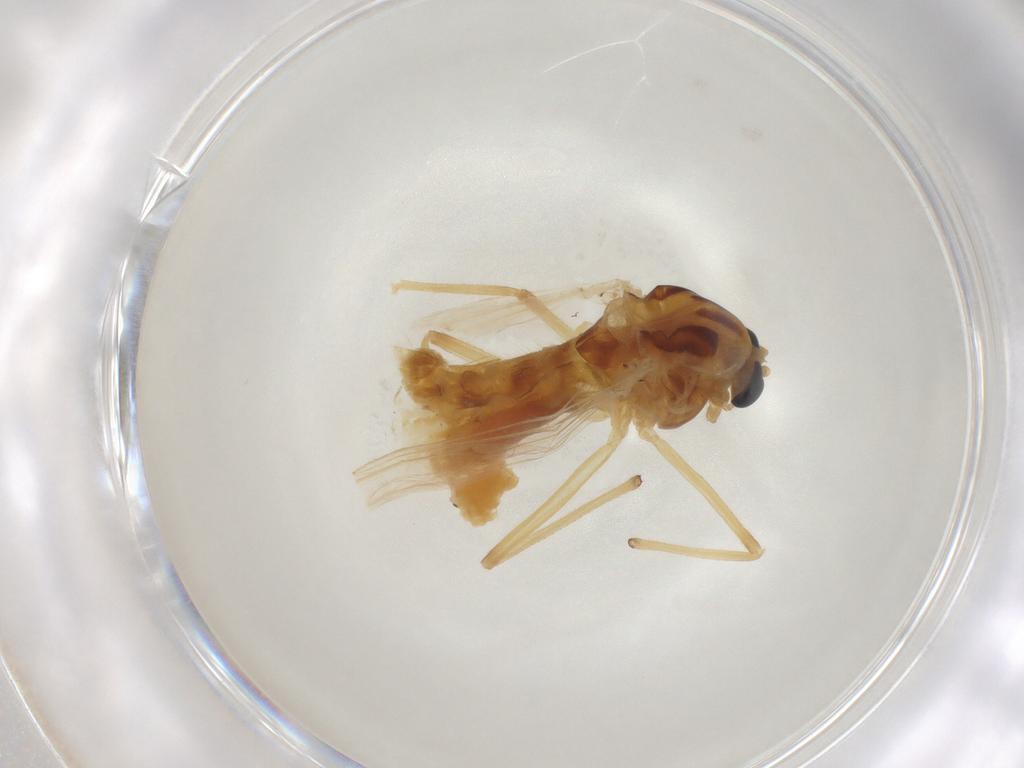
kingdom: Animalia
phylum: Arthropoda
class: Insecta
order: Diptera
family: Chironomidae
